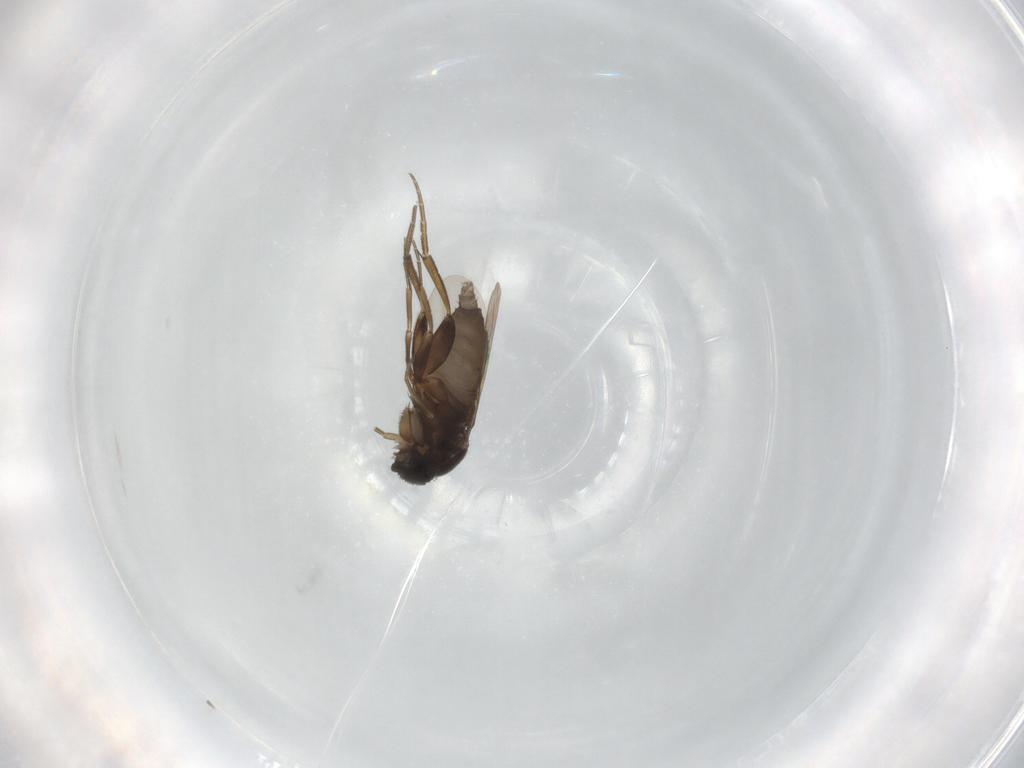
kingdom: Animalia
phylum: Arthropoda
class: Insecta
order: Diptera
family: Phoridae
